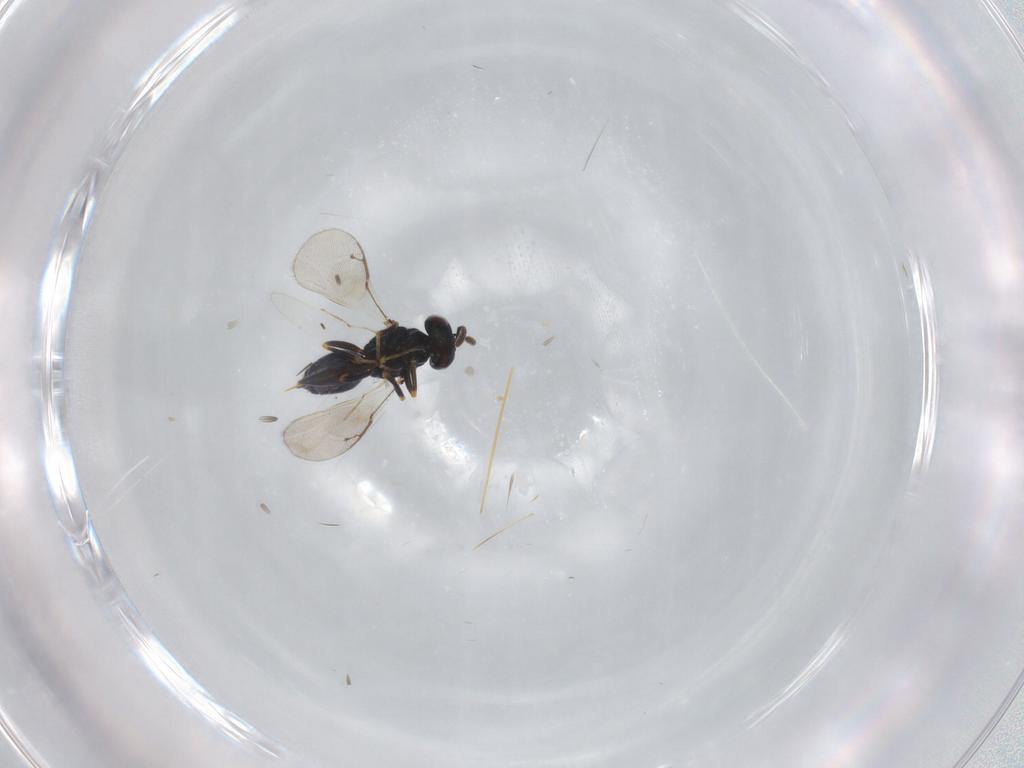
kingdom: Animalia
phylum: Arthropoda
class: Insecta
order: Hymenoptera
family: Pteromalidae
